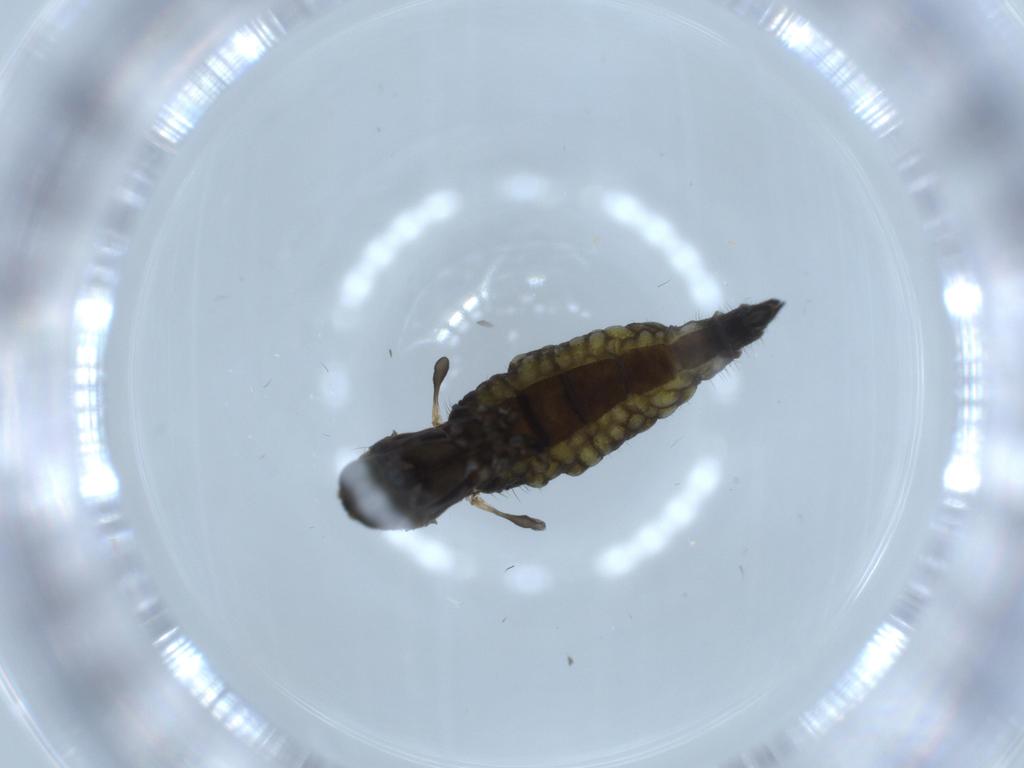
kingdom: Animalia
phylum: Arthropoda
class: Insecta
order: Diptera
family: Sciaridae
